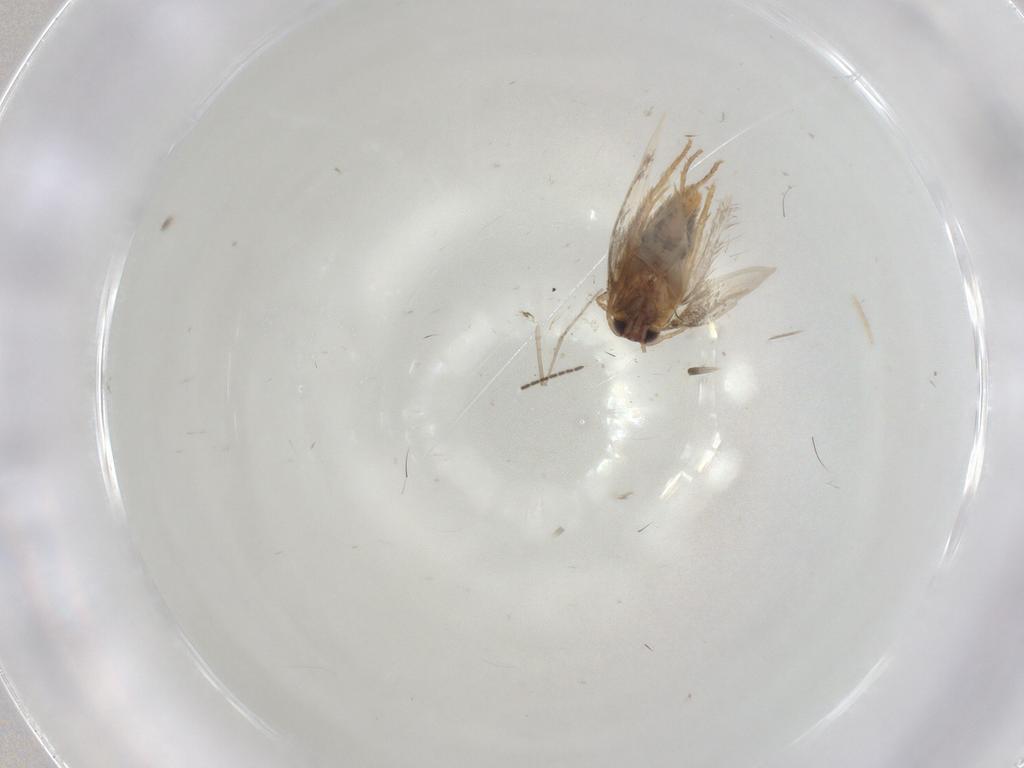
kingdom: Animalia
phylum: Arthropoda
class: Insecta
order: Lepidoptera
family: Nepticulidae
